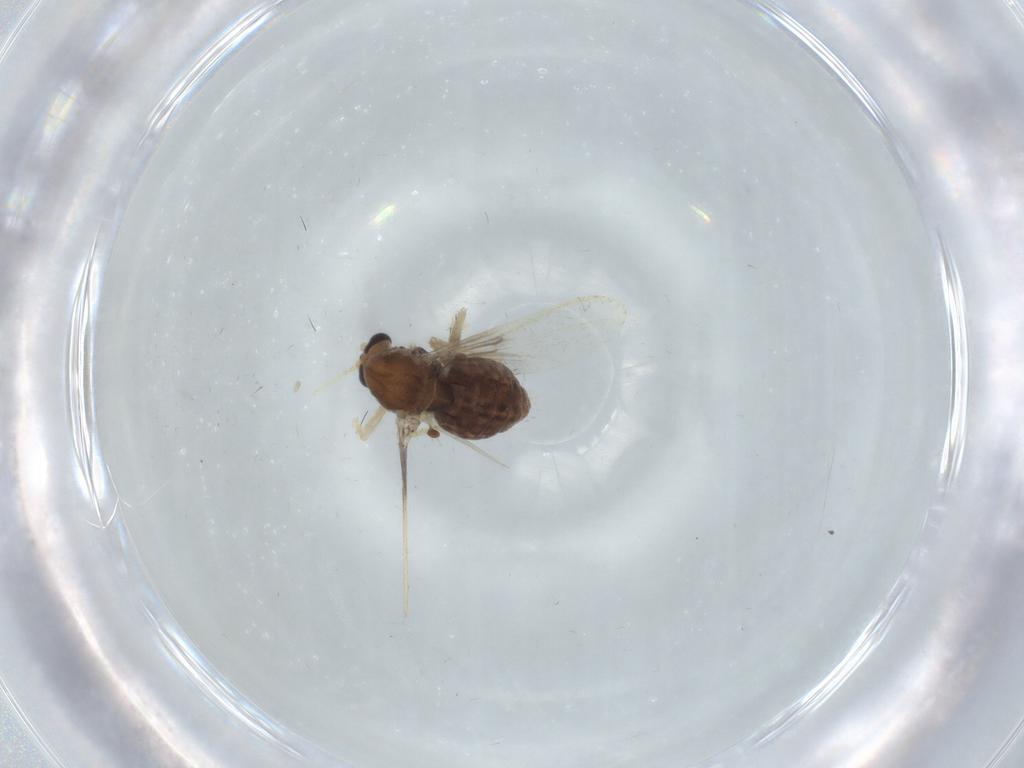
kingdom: Animalia
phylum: Arthropoda
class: Insecta
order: Diptera
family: Chironomidae
